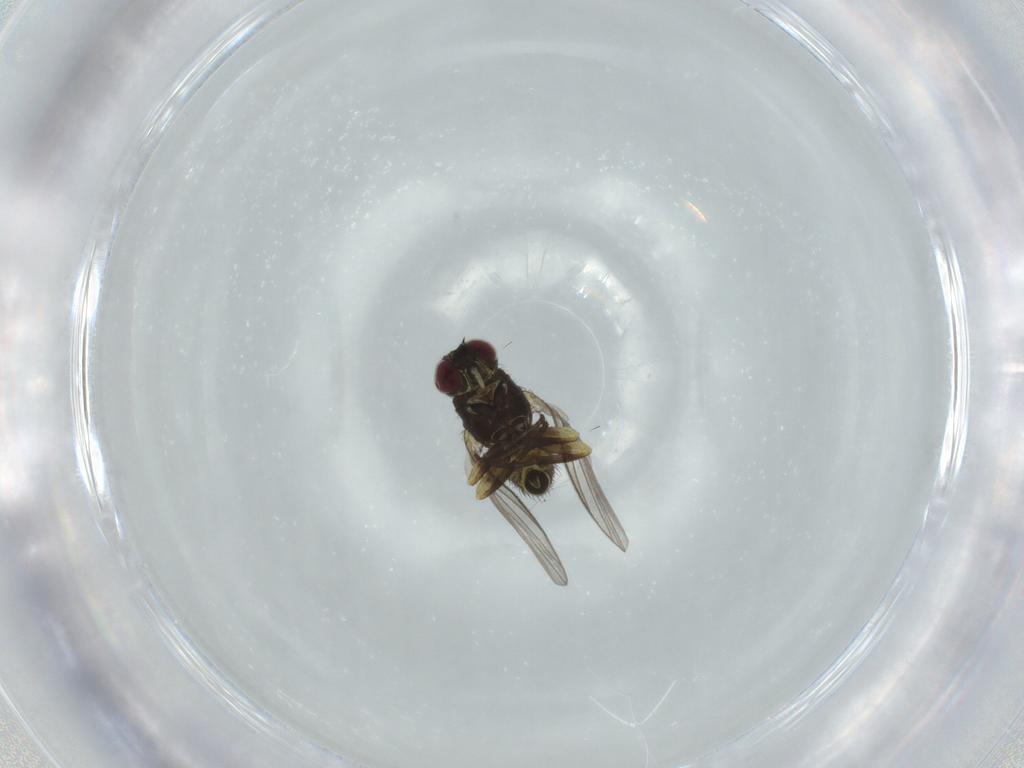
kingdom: Animalia
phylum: Arthropoda
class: Insecta
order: Diptera
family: Agromyzidae
